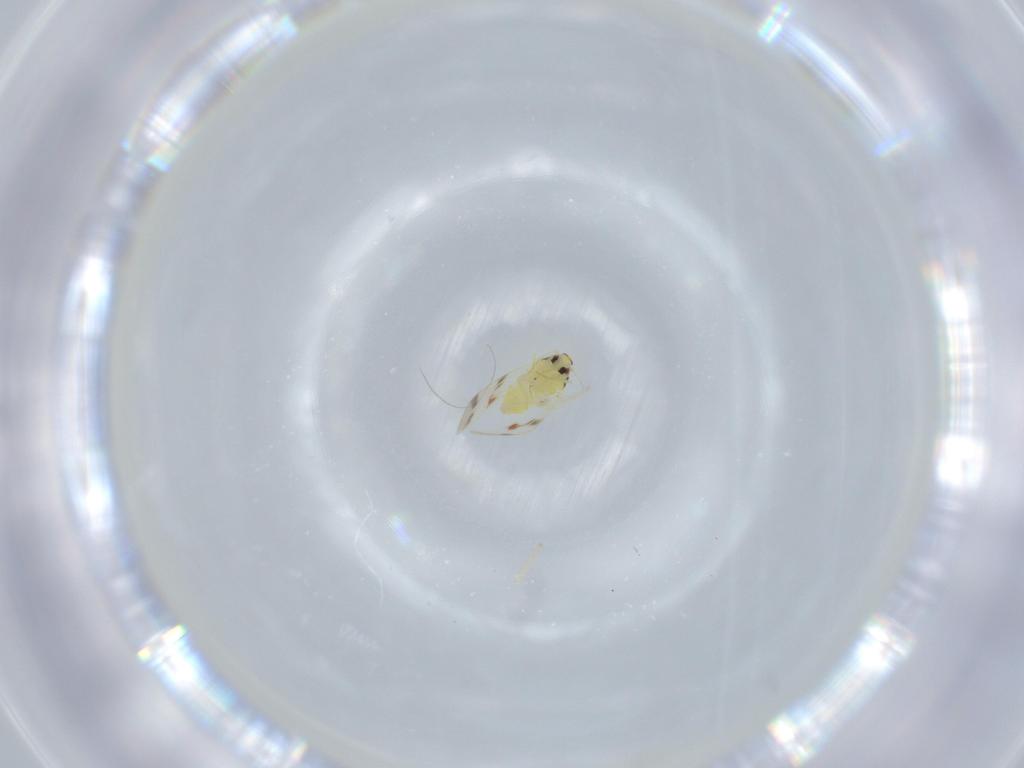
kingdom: Animalia
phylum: Arthropoda
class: Insecta
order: Hemiptera
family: Aleyrodidae
